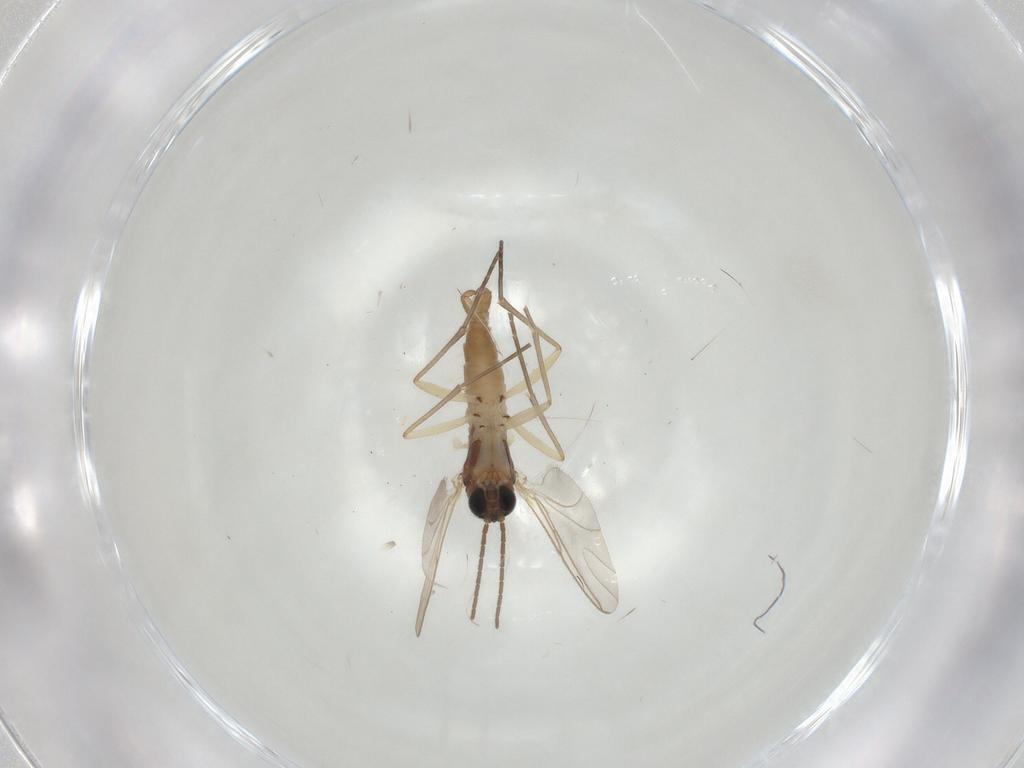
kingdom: Animalia
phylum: Arthropoda
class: Insecta
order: Diptera
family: Sciaridae
